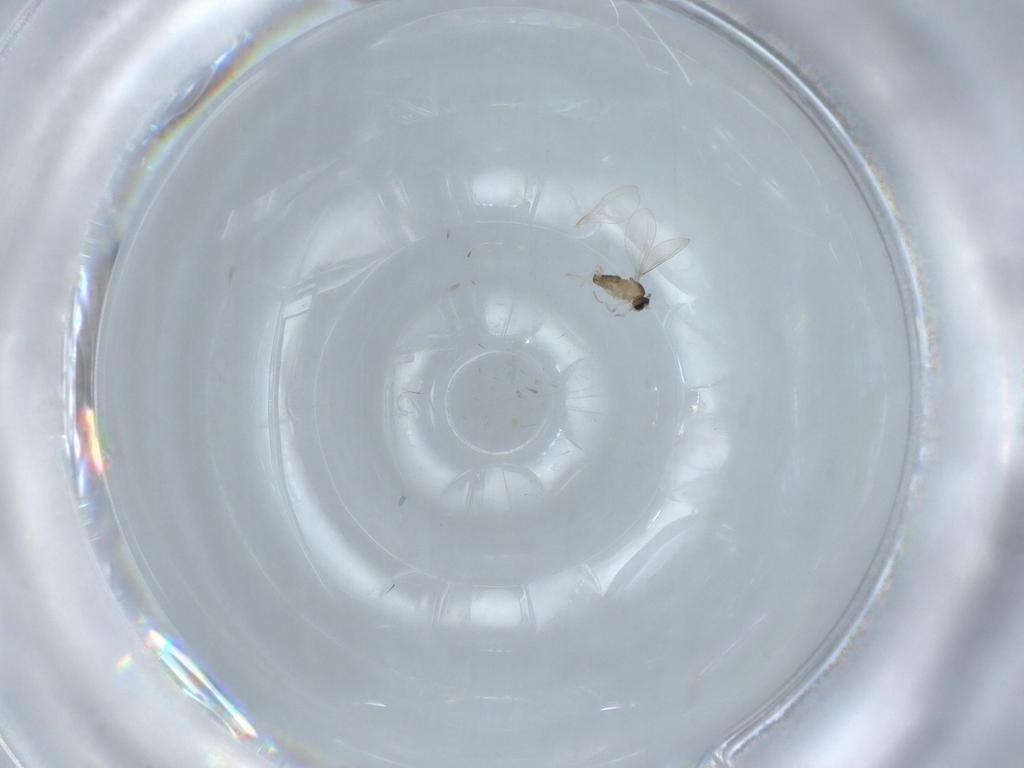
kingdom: Animalia
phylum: Arthropoda
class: Insecta
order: Diptera
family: Cecidomyiidae
